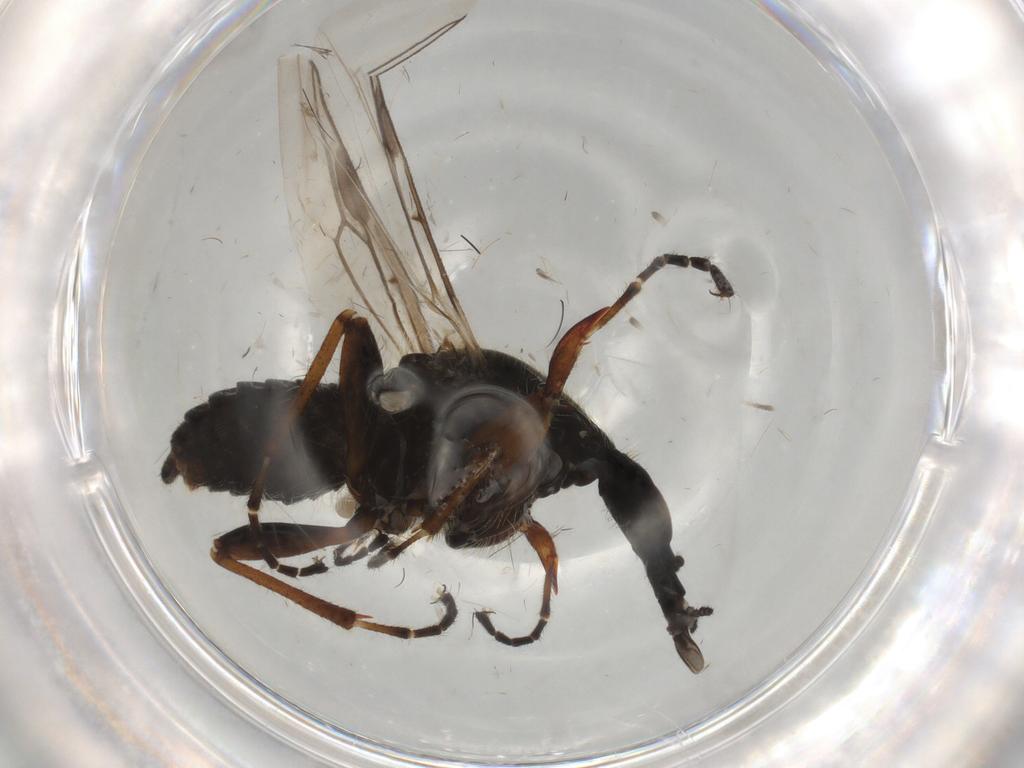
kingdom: Animalia
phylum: Arthropoda
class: Insecta
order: Diptera
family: Bibionidae
